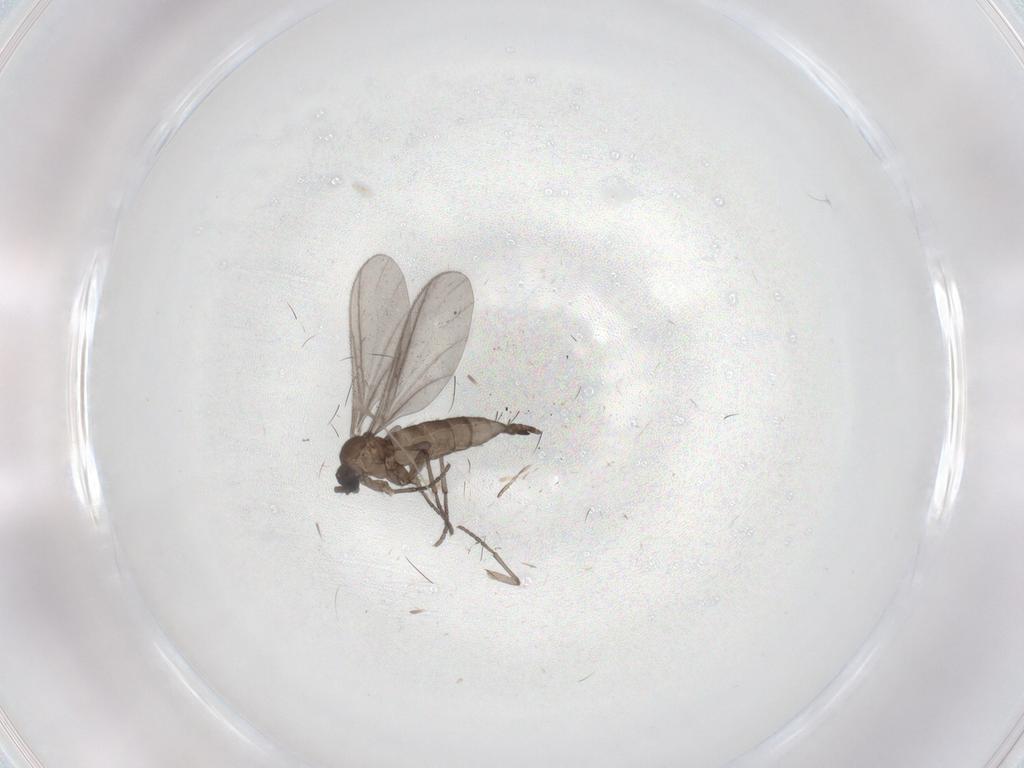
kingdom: Animalia
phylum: Arthropoda
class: Insecta
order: Diptera
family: Sciaridae
